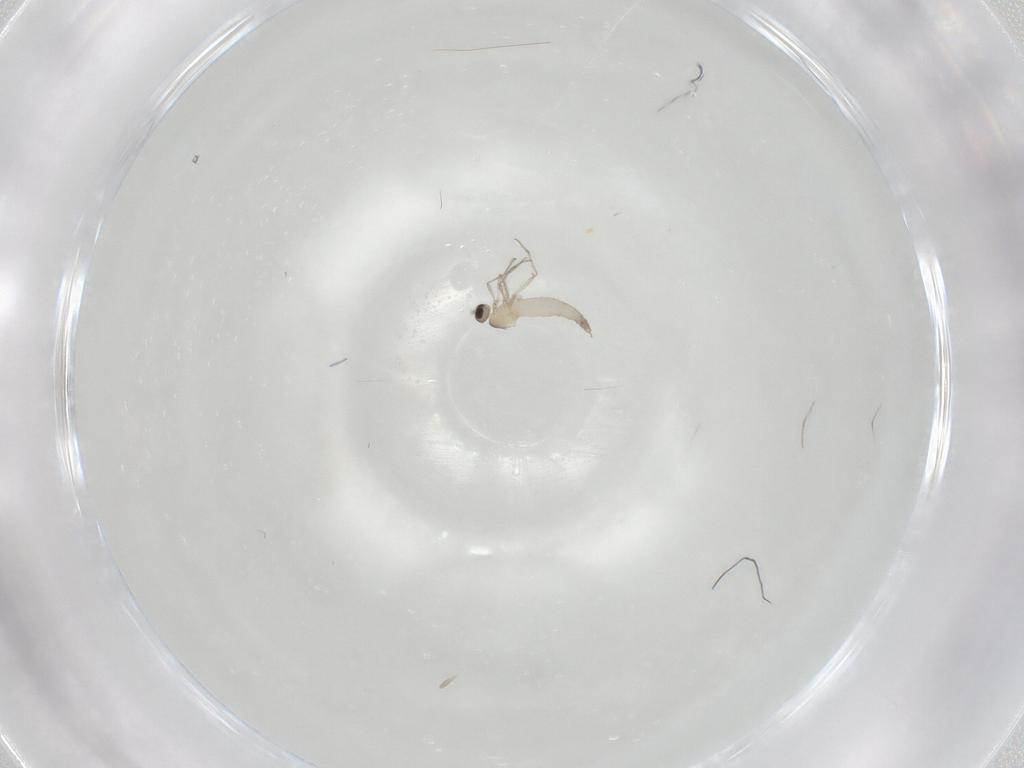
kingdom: Animalia
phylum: Arthropoda
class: Insecta
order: Diptera
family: Cecidomyiidae
